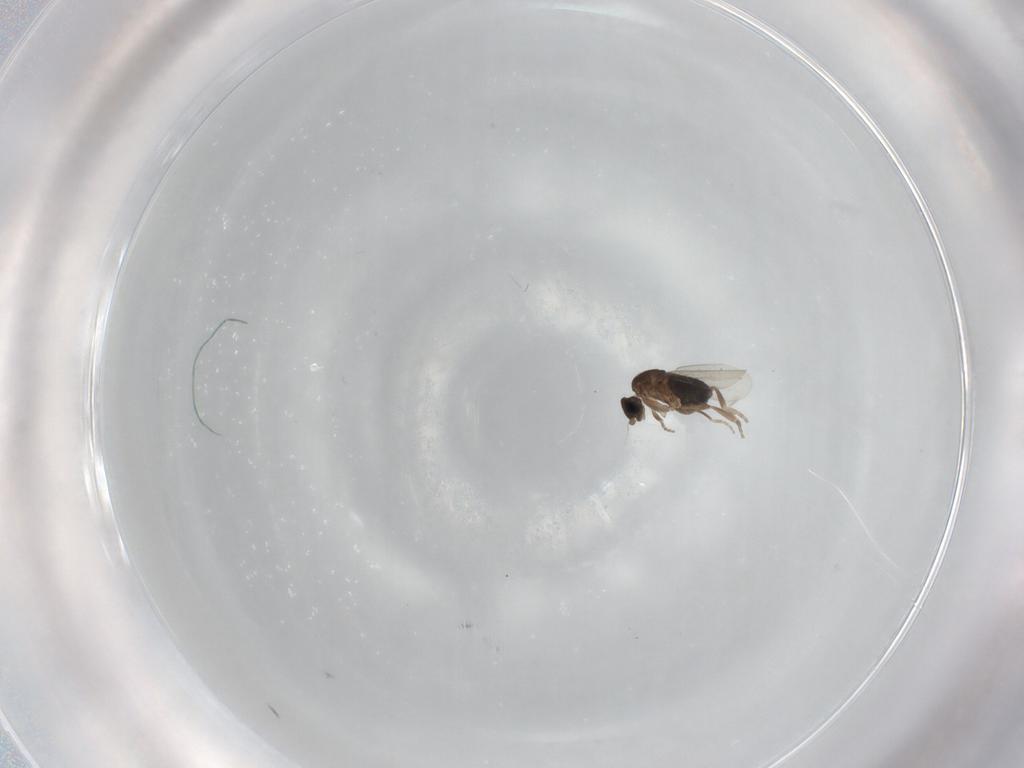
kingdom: Animalia
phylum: Arthropoda
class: Insecta
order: Diptera
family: Phoridae
